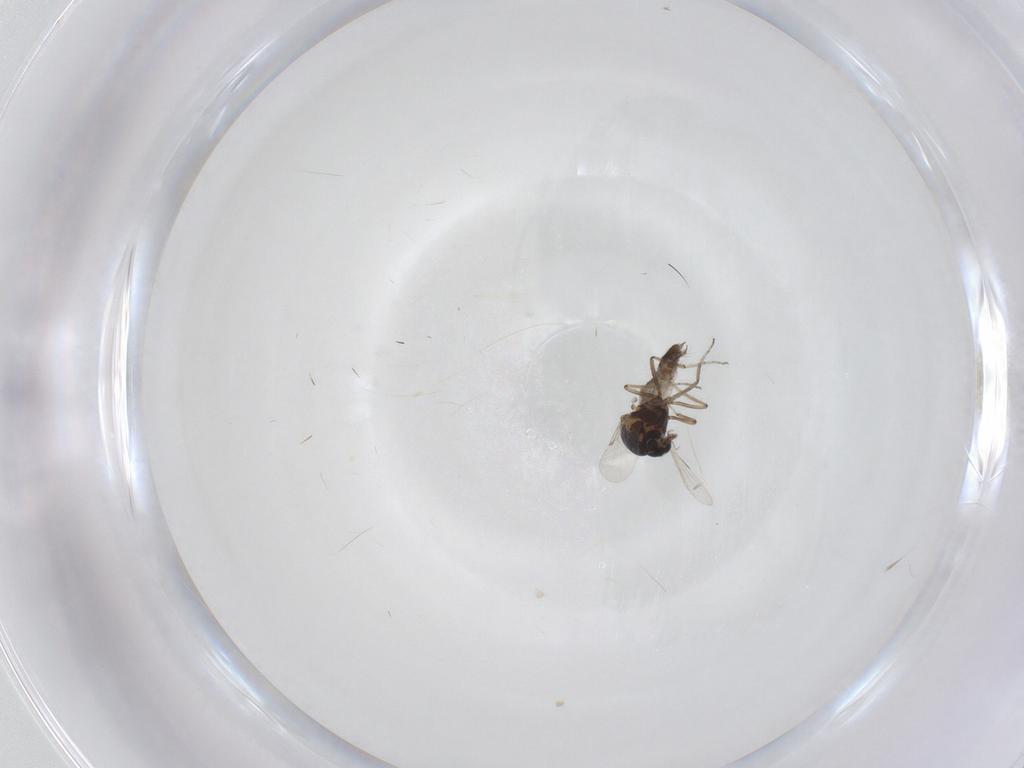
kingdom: Animalia
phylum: Arthropoda
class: Insecta
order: Diptera
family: Ceratopogonidae
